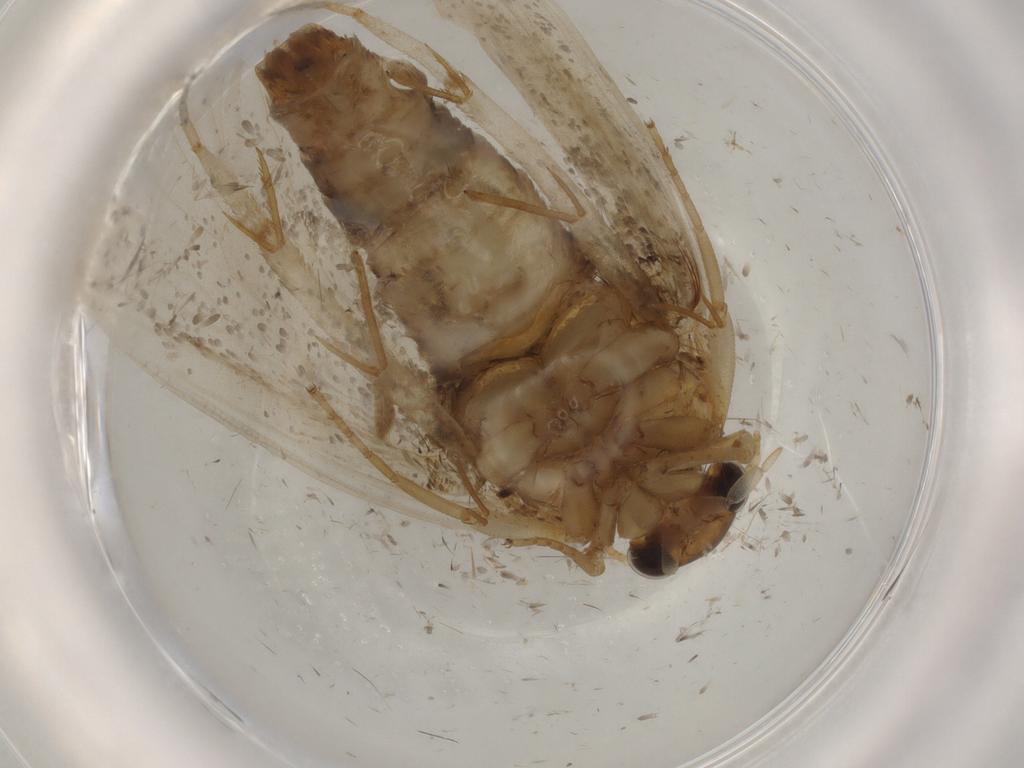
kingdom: Animalia
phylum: Arthropoda
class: Insecta
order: Lepidoptera
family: Tineidae
